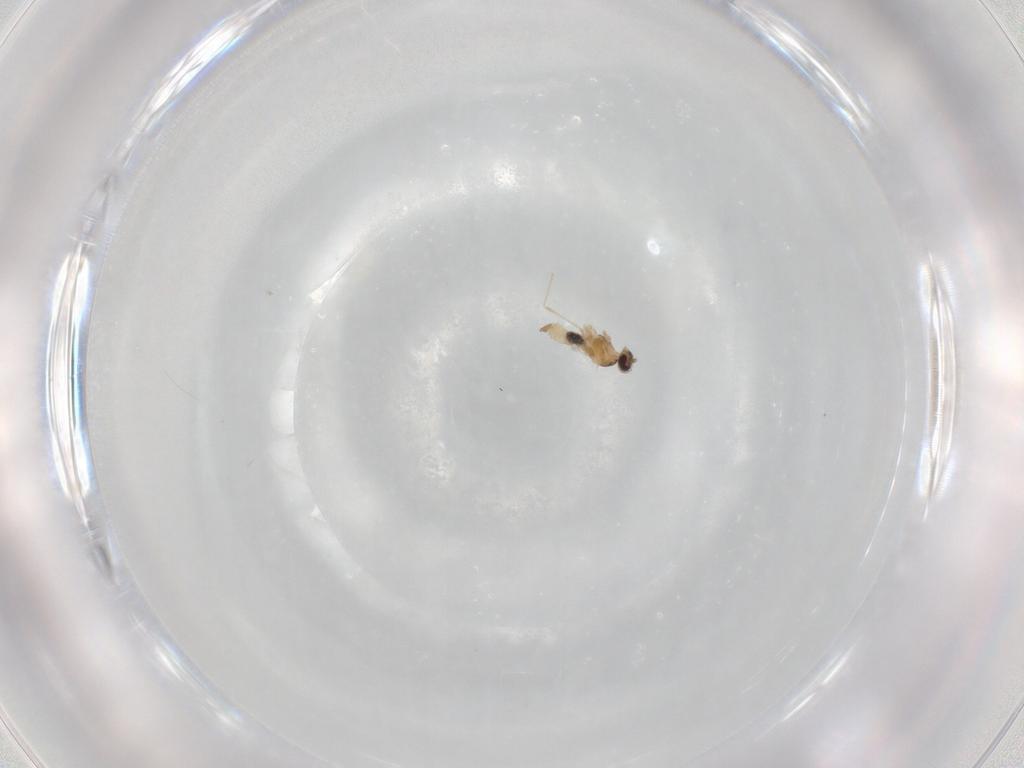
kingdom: Animalia
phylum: Arthropoda
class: Insecta
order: Diptera
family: Cecidomyiidae
